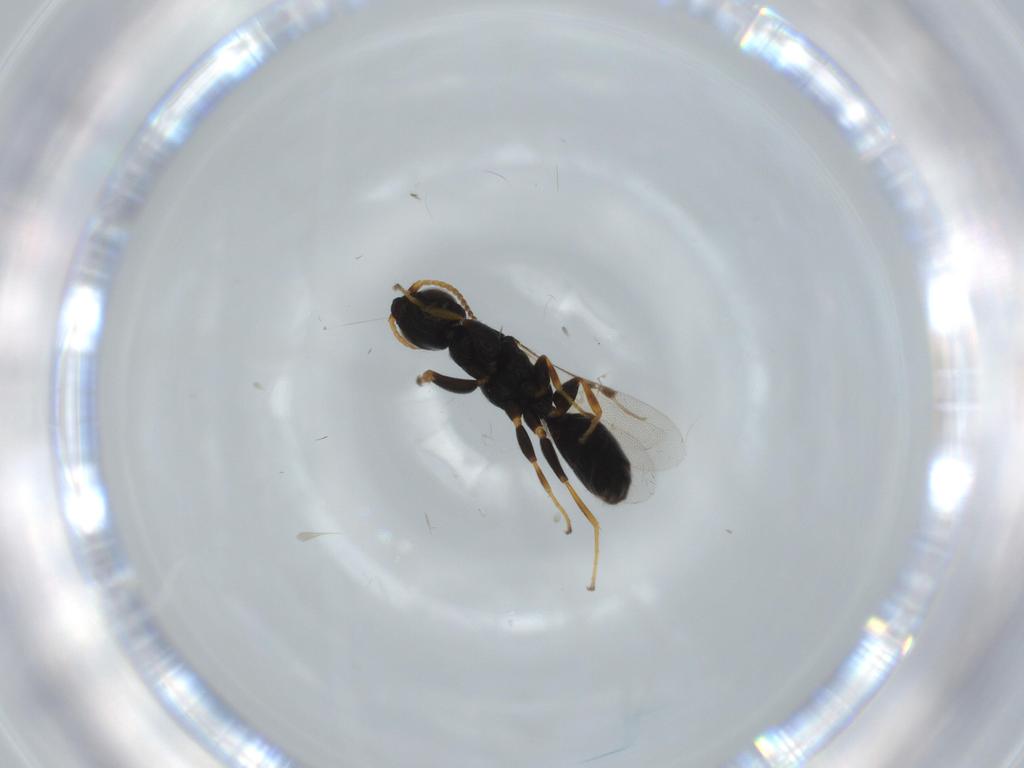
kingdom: Animalia
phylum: Arthropoda
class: Insecta
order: Hymenoptera
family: Bethylidae
